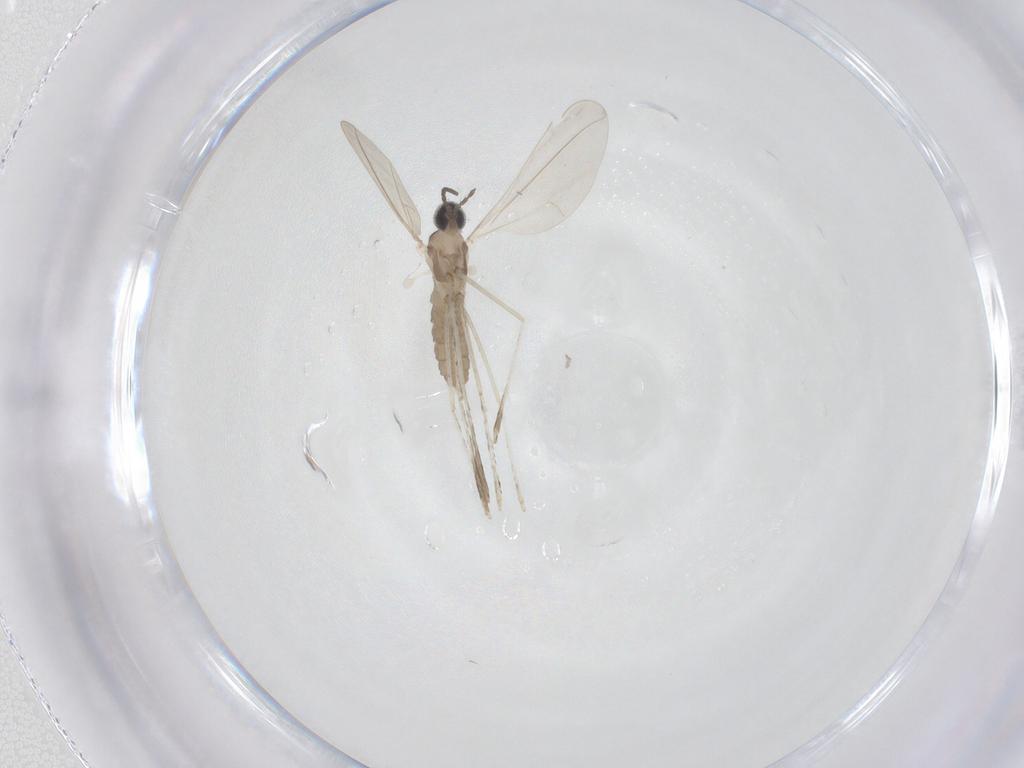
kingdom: Animalia
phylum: Arthropoda
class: Insecta
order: Diptera
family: Cecidomyiidae
